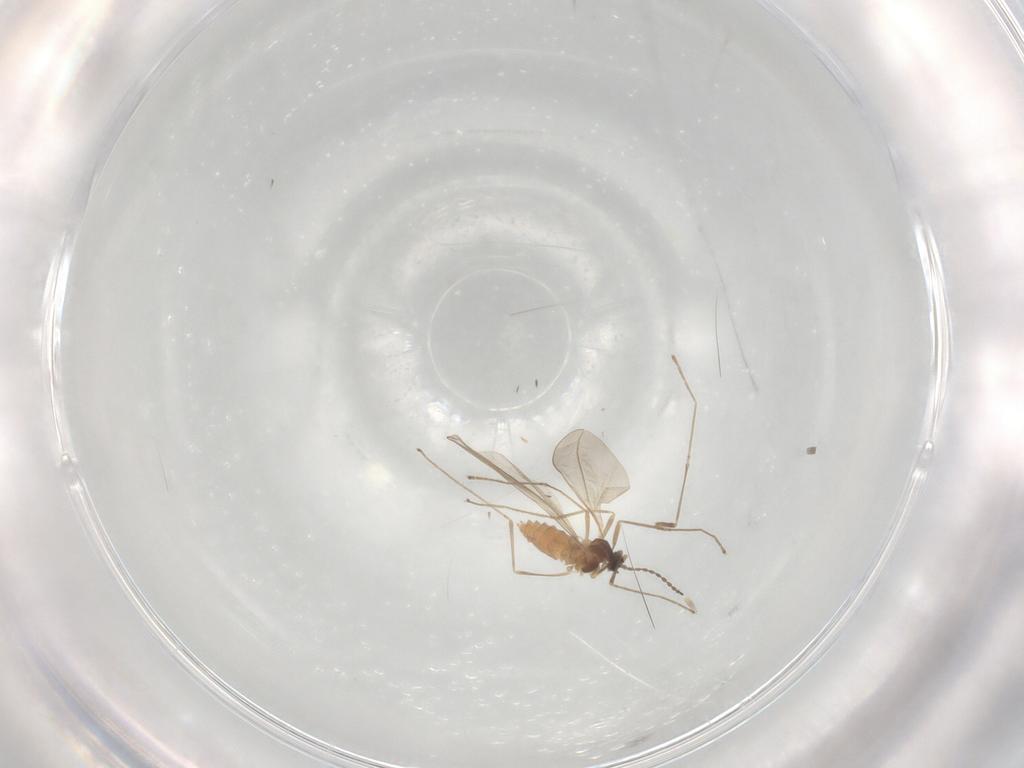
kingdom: Animalia
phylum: Arthropoda
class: Insecta
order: Diptera
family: Cecidomyiidae
